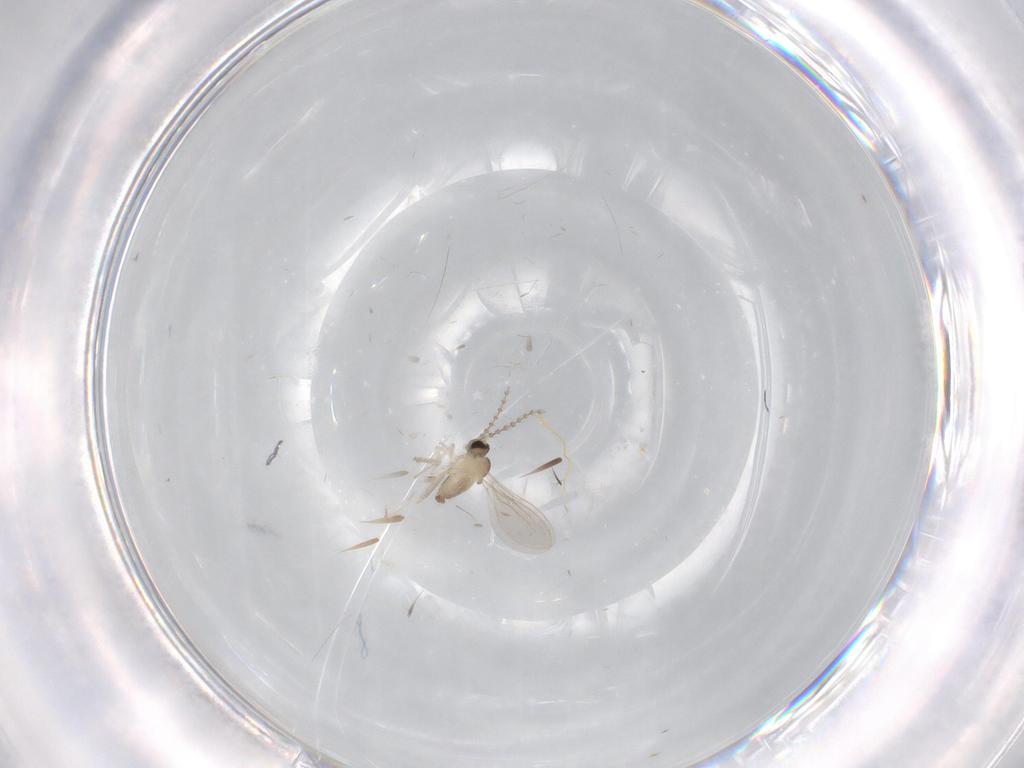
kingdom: Animalia
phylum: Arthropoda
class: Insecta
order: Diptera
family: Cecidomyiidae
